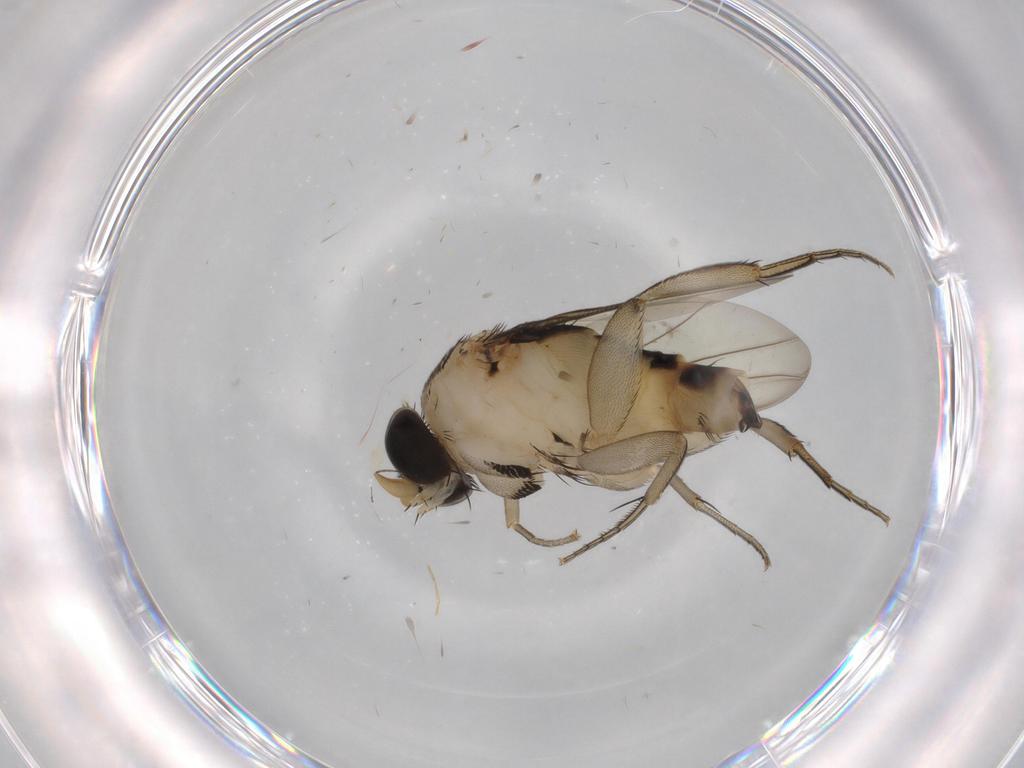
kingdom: Animalia
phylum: Arthropoda
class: Insecta
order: Diptera
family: Phoridae
